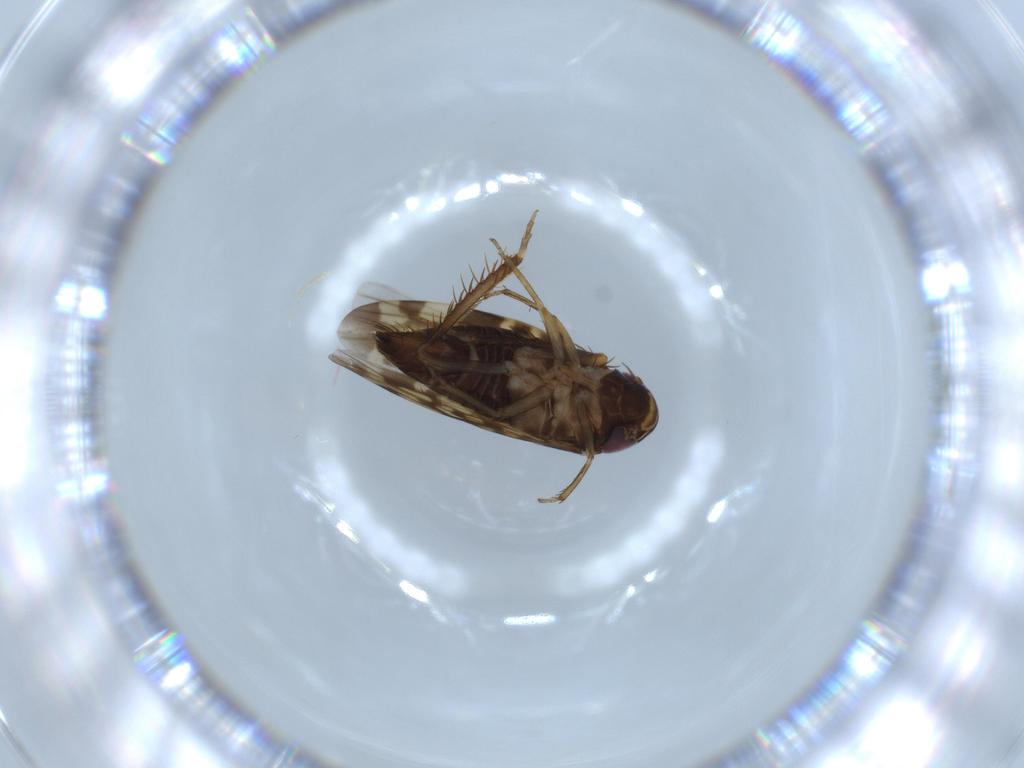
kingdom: Animalia
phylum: Arthropoda
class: Insecta
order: Hemiptera
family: Cicadellidae
